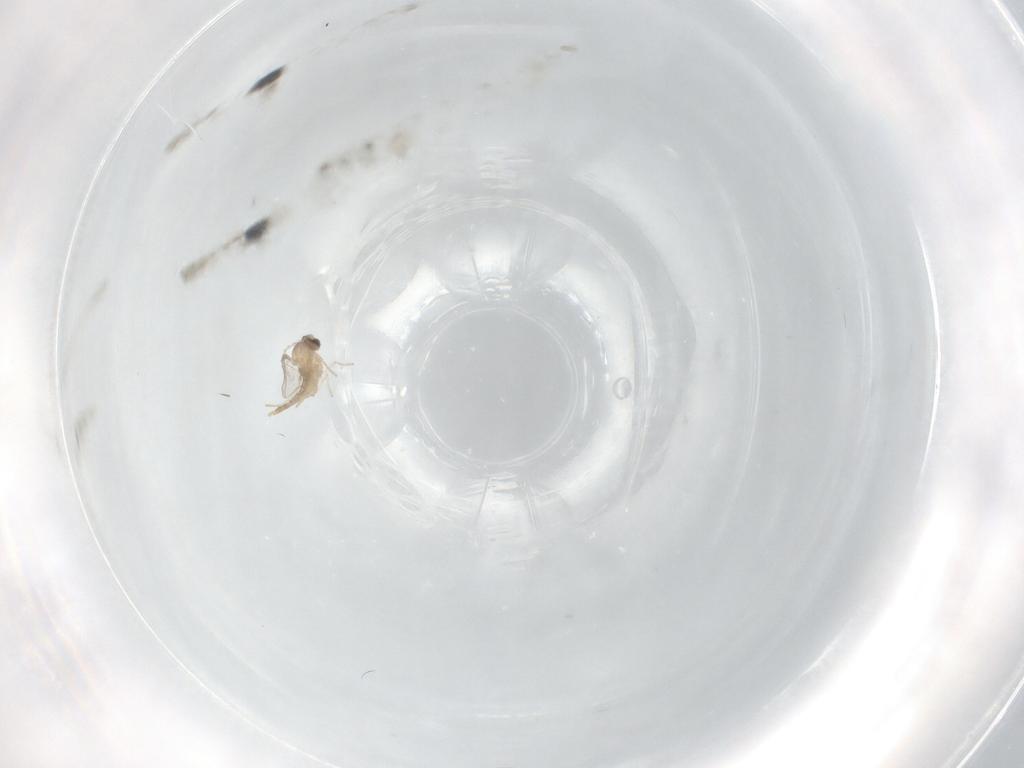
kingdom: Animalia
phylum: Arthropoda
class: Insecta
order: Diptera
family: Cecidomyiidae
